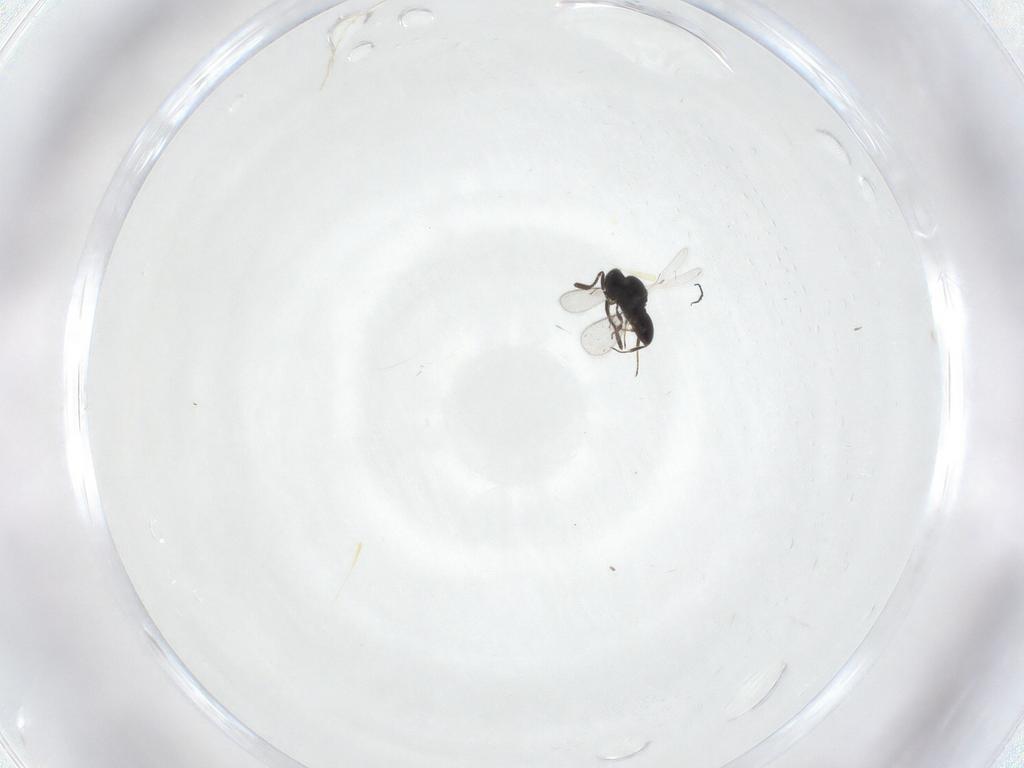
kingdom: Animalia
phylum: Arthropoda
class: Insecta
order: Hymenoptera
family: Scelionidae
